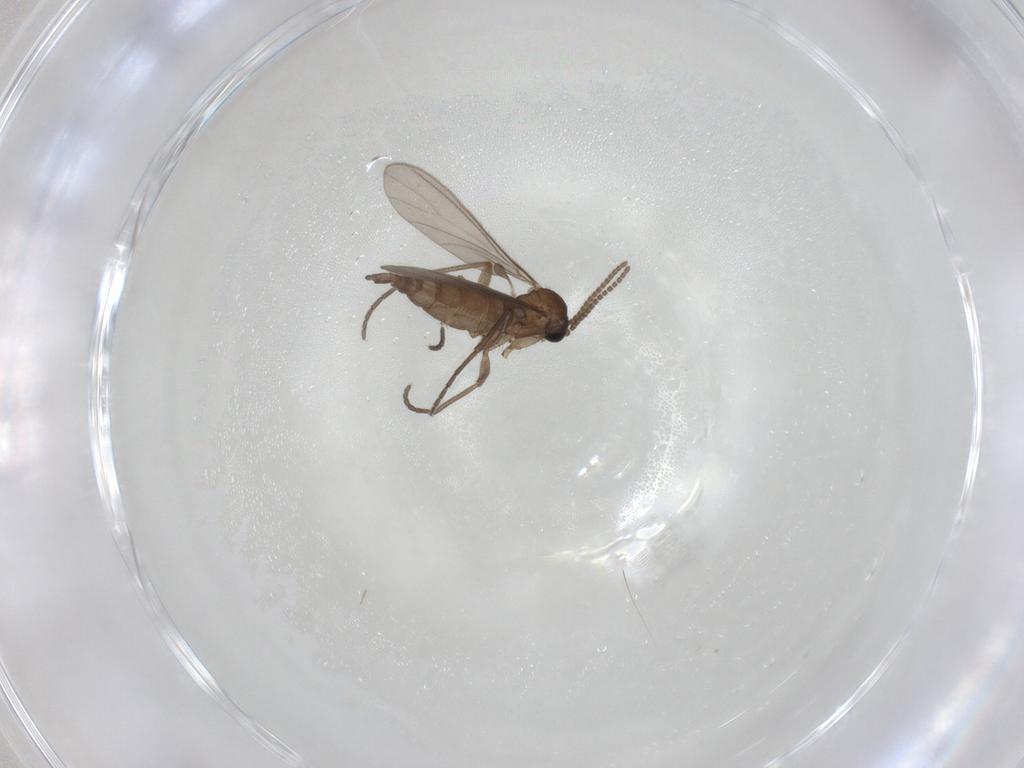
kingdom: Animalia
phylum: Arthropoda
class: Insecta
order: Diptera
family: Sciaridae
